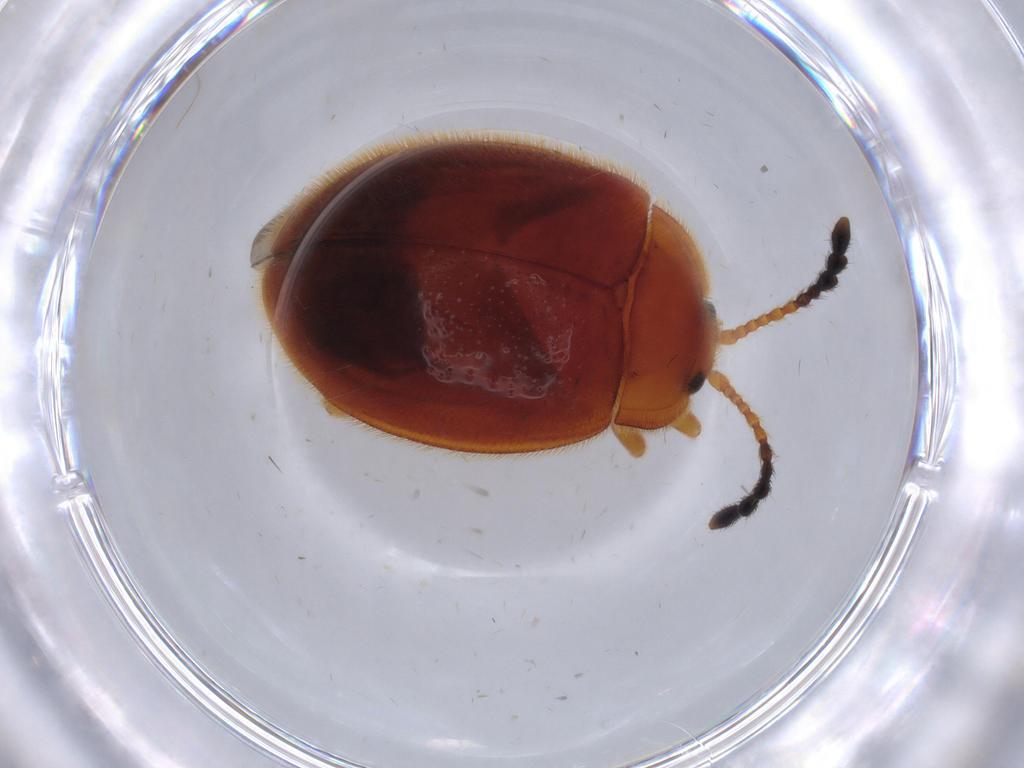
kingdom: Animalia
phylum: Arthropoda
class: Insecta
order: Coleoptera
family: Endomychidae
